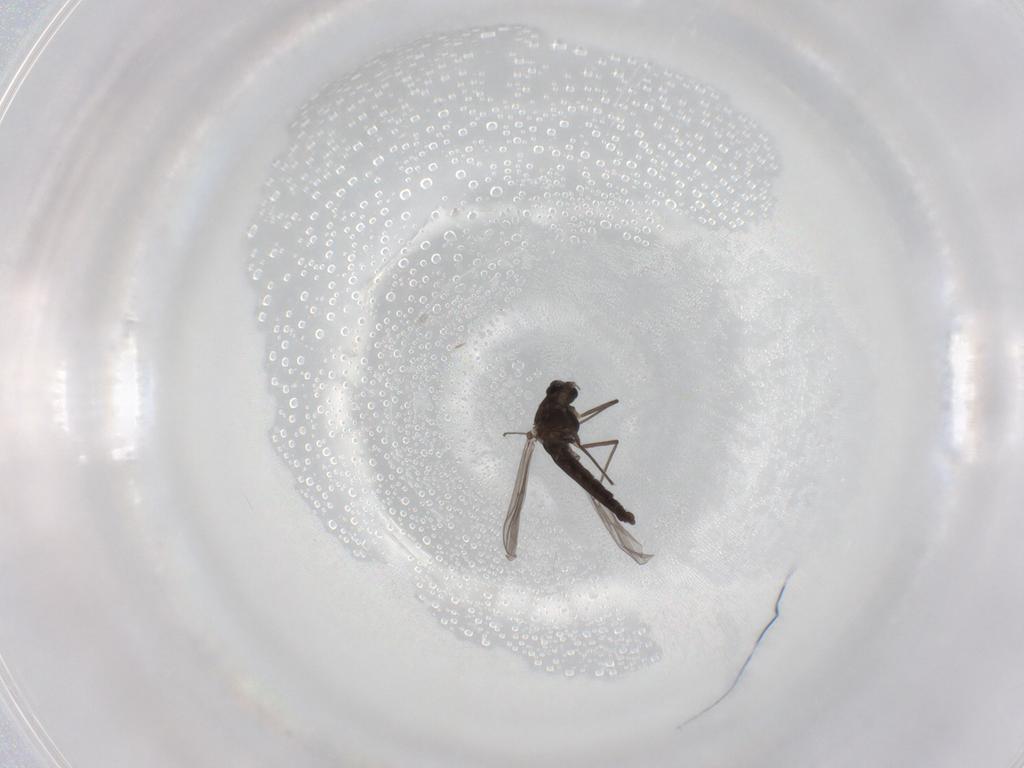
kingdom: Animalia
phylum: Arthropoda
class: Insecta
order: Diptera
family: Chironomidae
